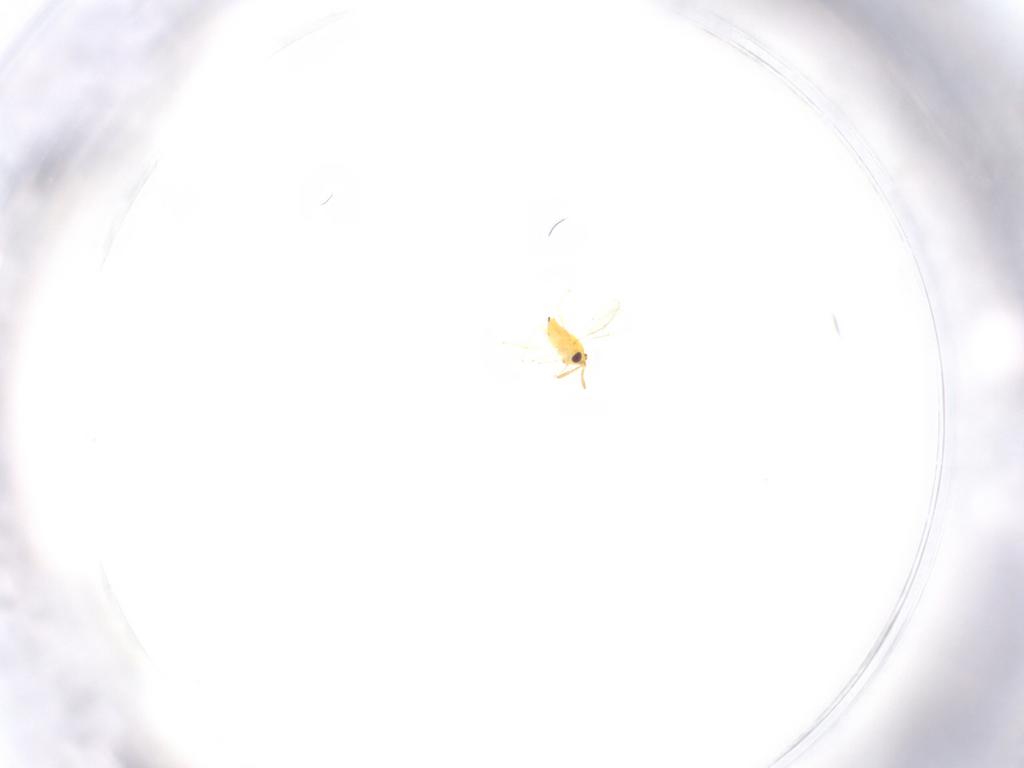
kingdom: Animalia
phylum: Arthropoda
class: Insecta
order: Hymenoptera
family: Aphelinidae
